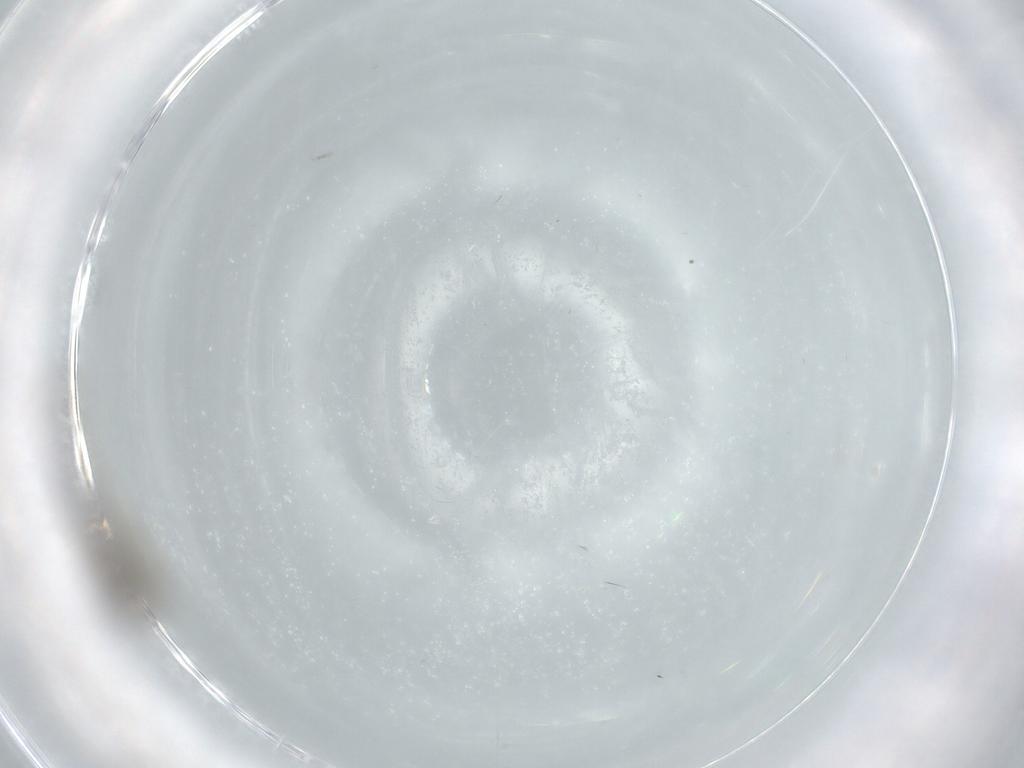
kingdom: Animalia
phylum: Arthropoda
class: Insecta
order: Diptera
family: Chironomidae
